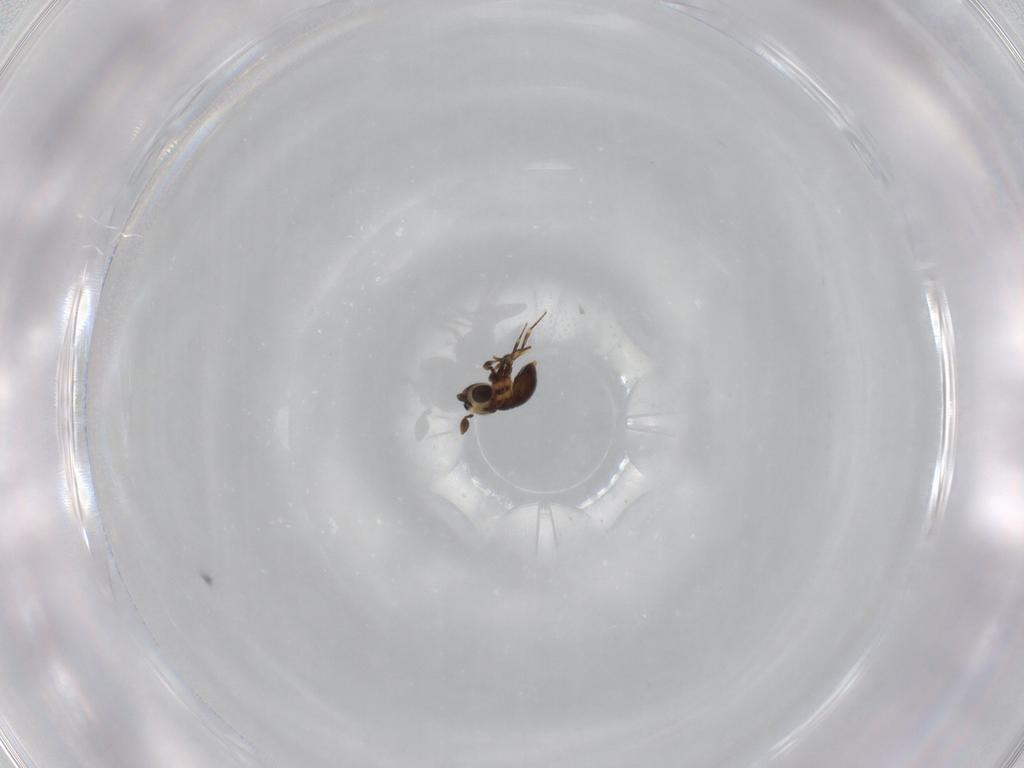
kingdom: Animalia
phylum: Arthropoda
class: Insecta
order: Hymenoptera
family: Scelionidae
